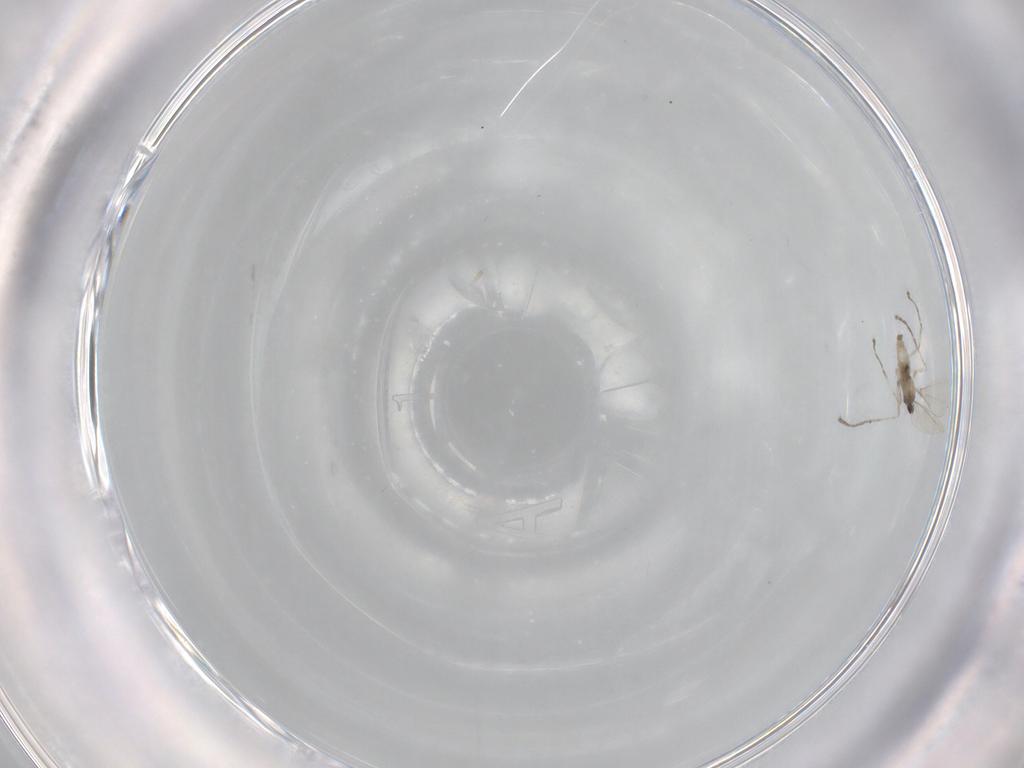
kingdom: Animalia
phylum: Arthropoda
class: Insecta
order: Diptera
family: Cecidomyiidae
